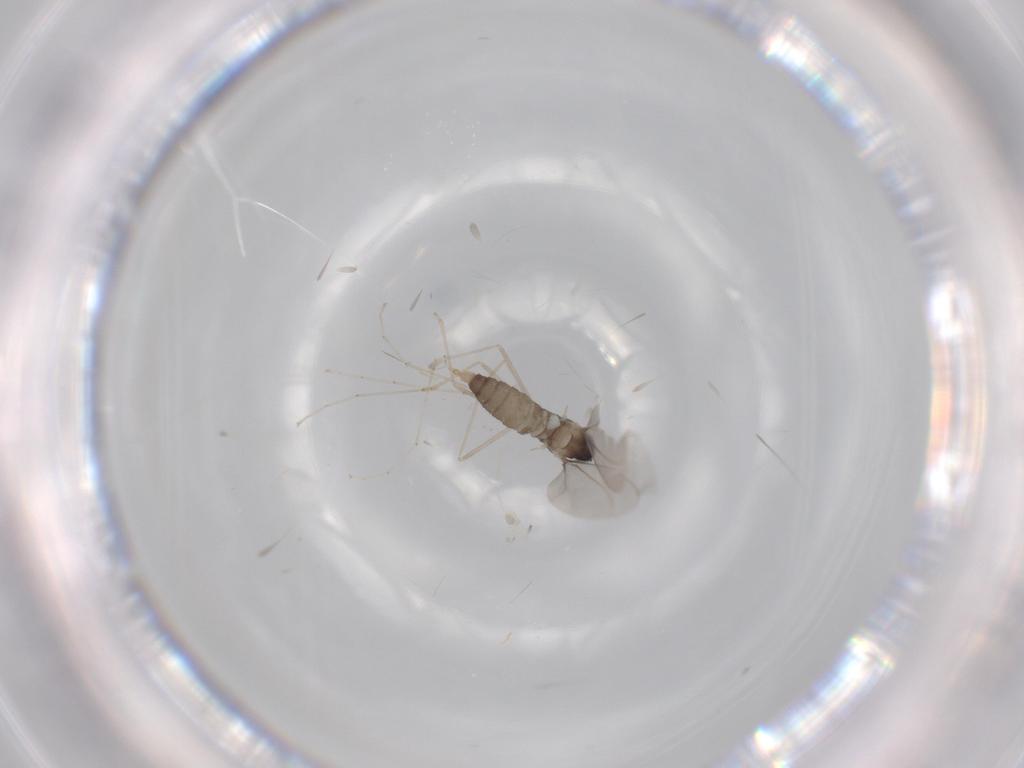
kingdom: Animalia
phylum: Arthropoda
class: Insecta
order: Diptera
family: Cecidomyiidae
